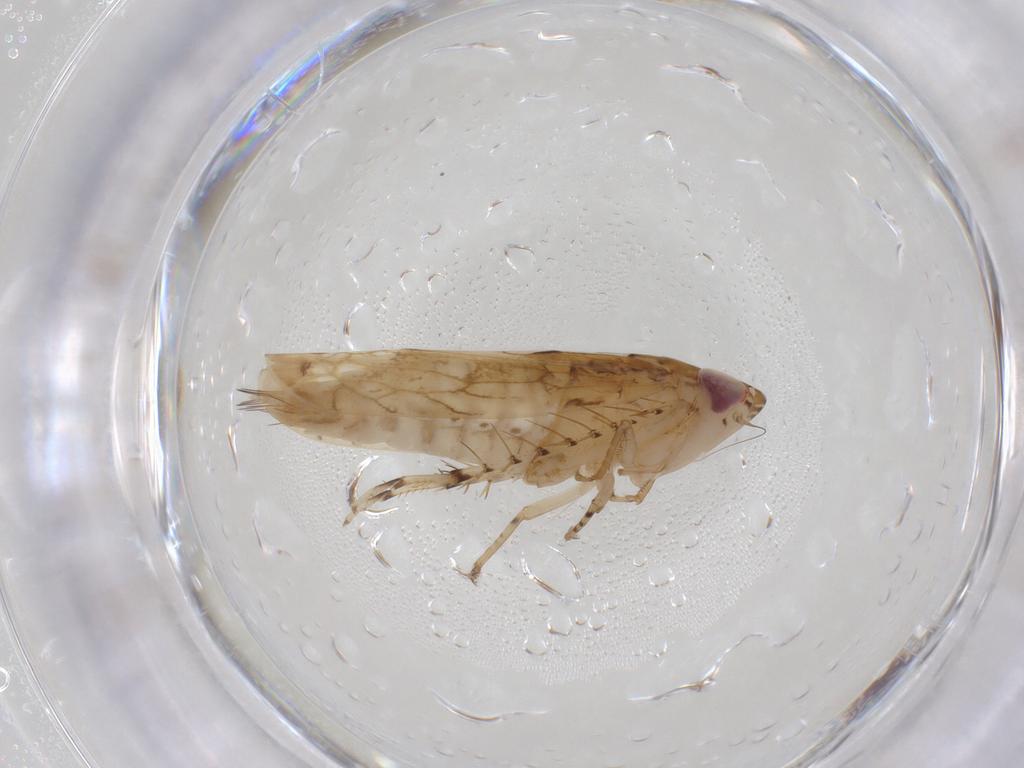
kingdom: Animalia
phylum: Arthropoda
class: Insecta
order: Hemiptera
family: Cicadellidae
